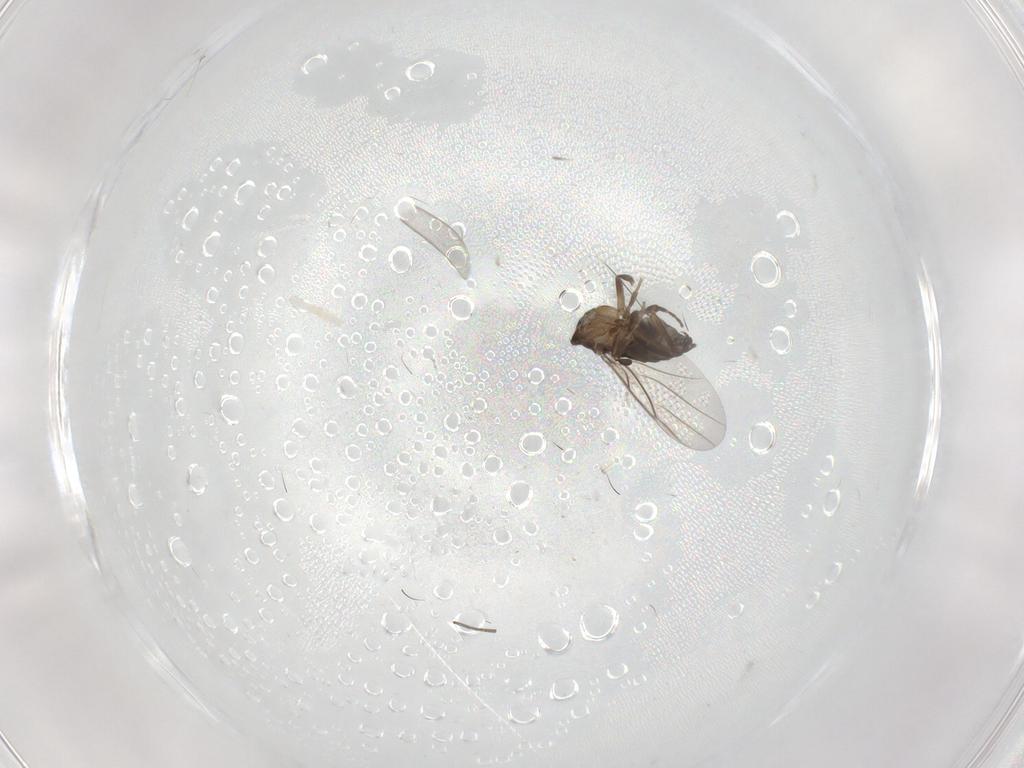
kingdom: Animalia
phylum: Arthropoda
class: Insecta
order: Diptera
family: Phoridae
